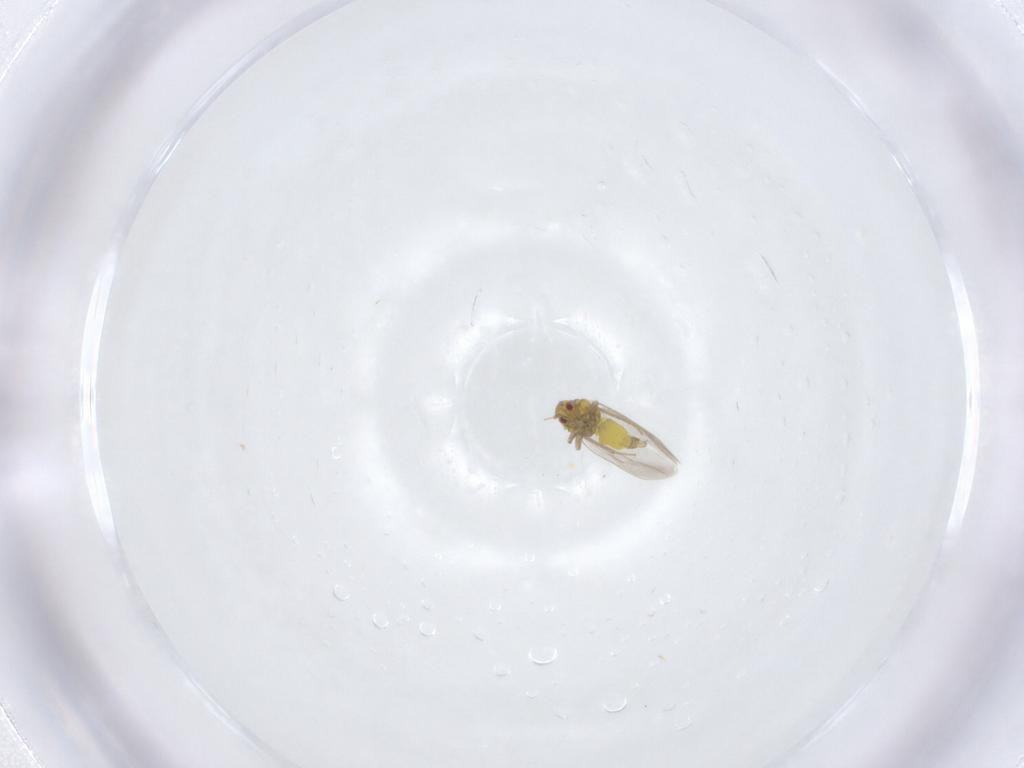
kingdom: Animalia
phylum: Arthropoda
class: Insecta
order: Hemiptera
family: Aleyrodidae
